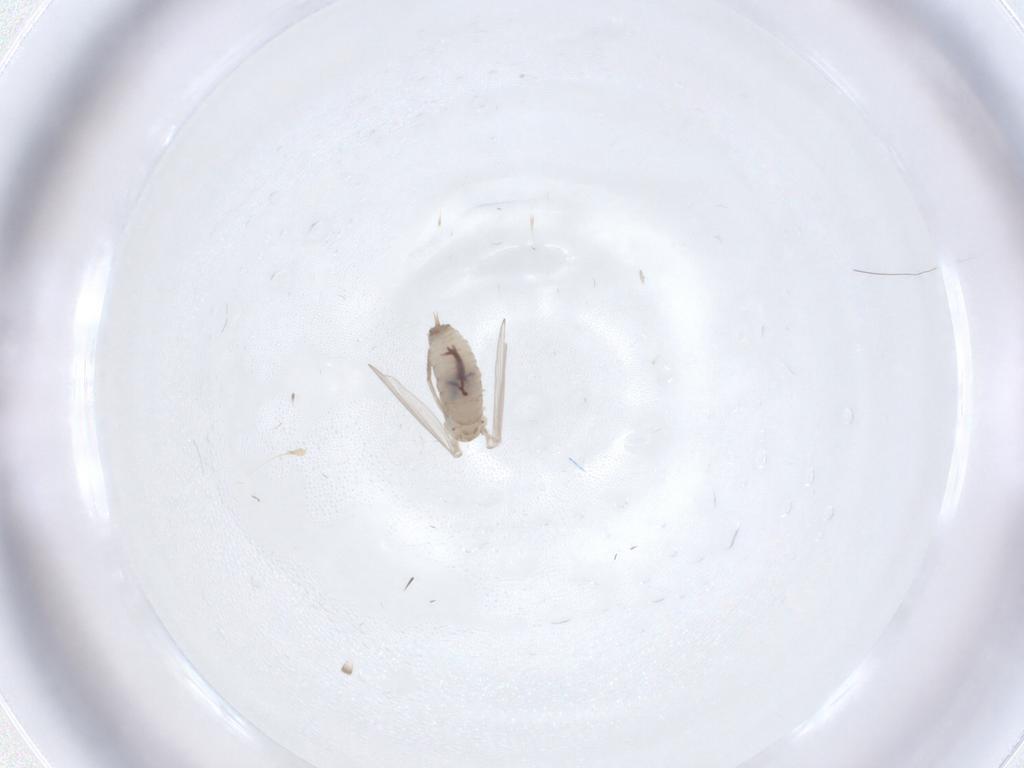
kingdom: Animalia
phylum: Arthropoda
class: Insecta
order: Diptera
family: Psychodidae
